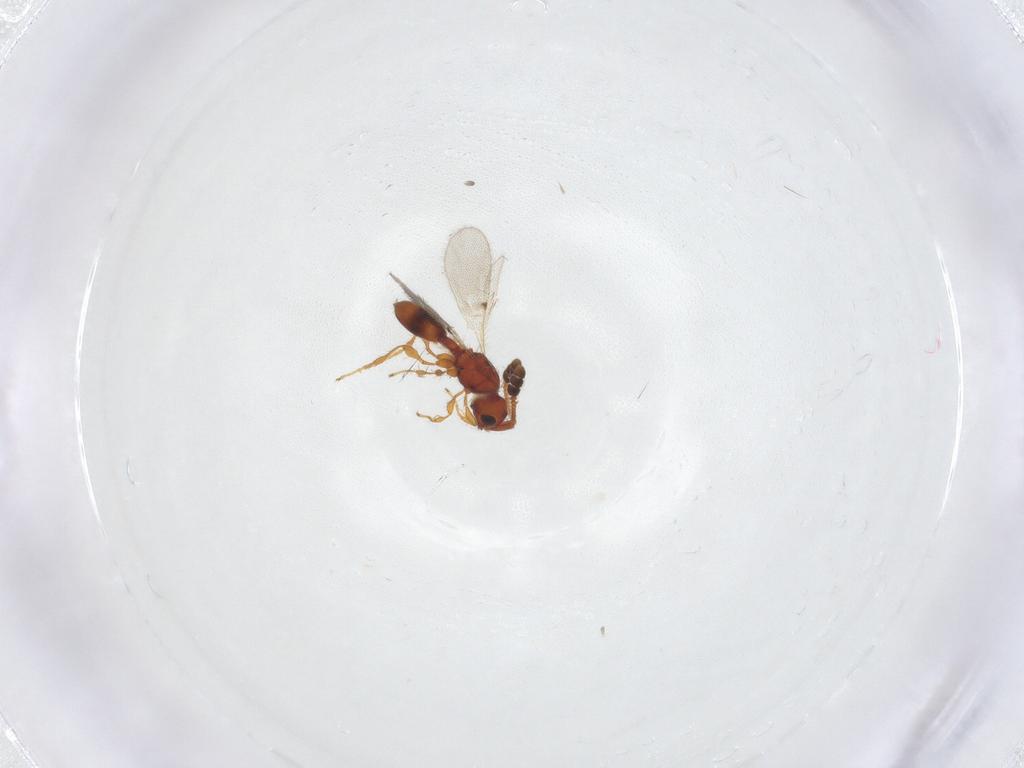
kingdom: Animalia
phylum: Arthropoda
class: Insecta
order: Hymenoptera
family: Diapriidae
